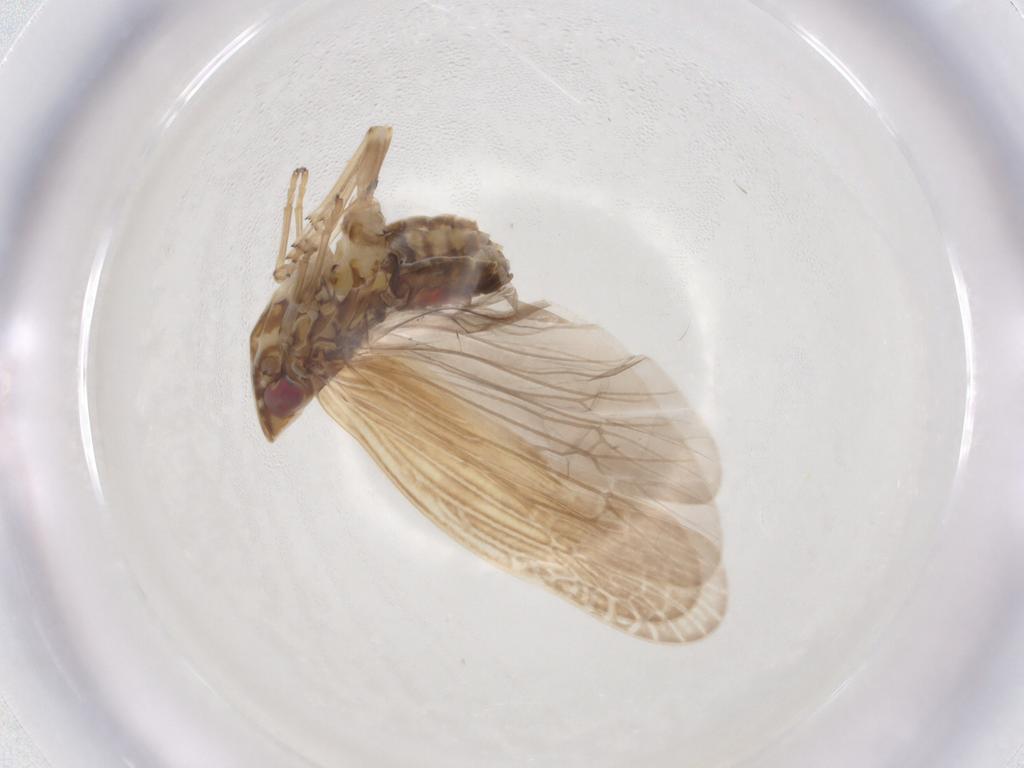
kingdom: Animalia
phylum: Arthropoda
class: Insecta
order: Hemiptera
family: Achilidae
